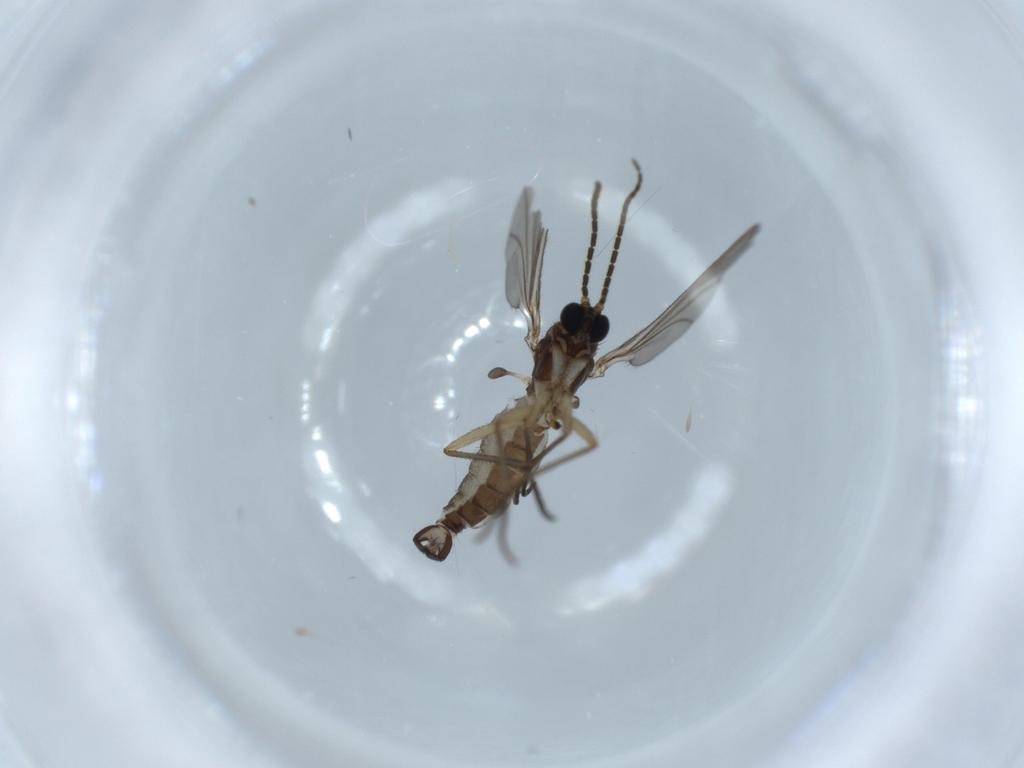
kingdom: Animalia
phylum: Arthropoda
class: Insecta
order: Diptera
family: Sciaridae
